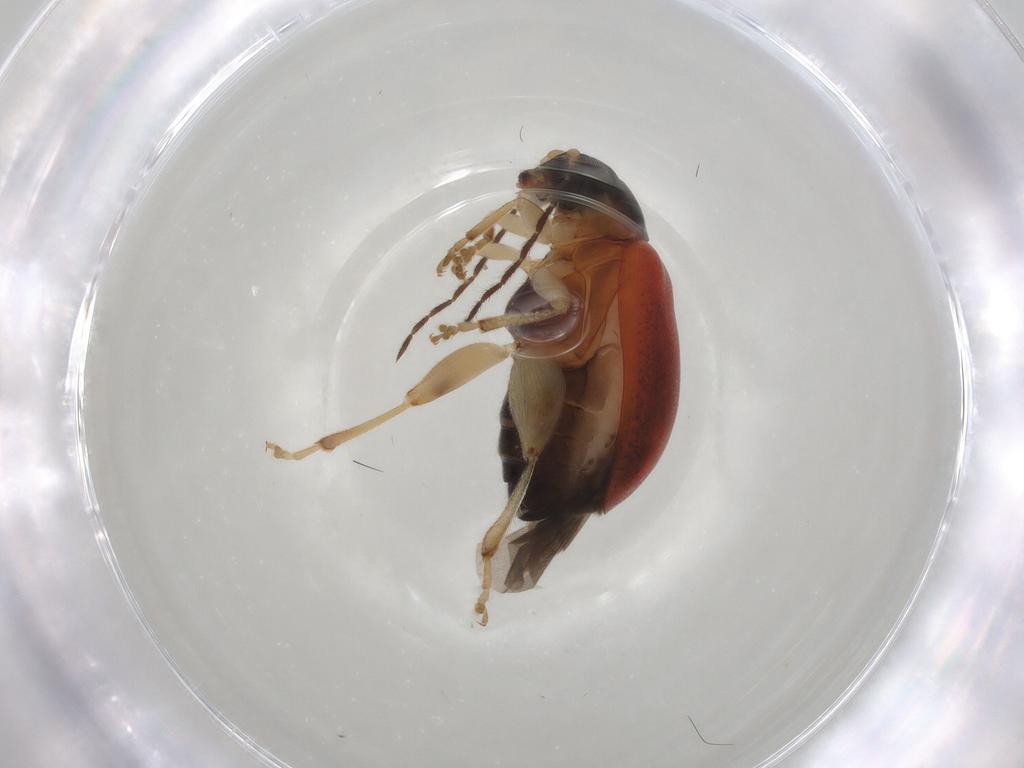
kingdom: Animalia
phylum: Arthropoda
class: Insecta
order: Coleoptera
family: Chrysomelidae
